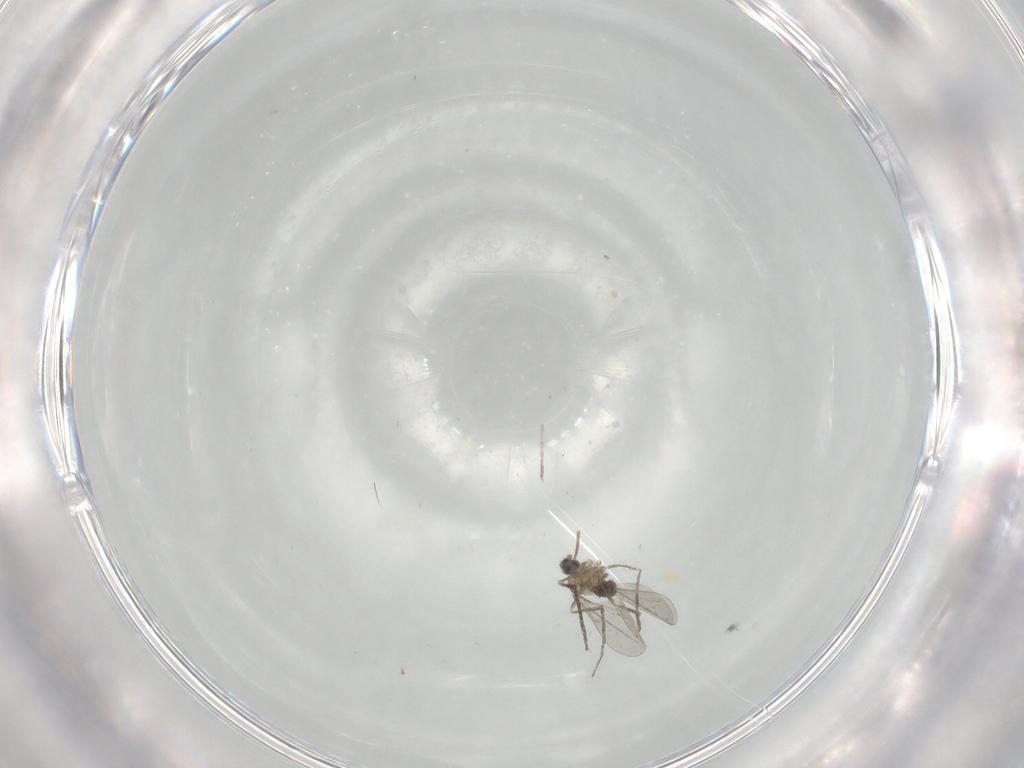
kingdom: Animalia
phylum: Arthropoda
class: Insecta
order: Diptera
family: Cecidomyiidae
